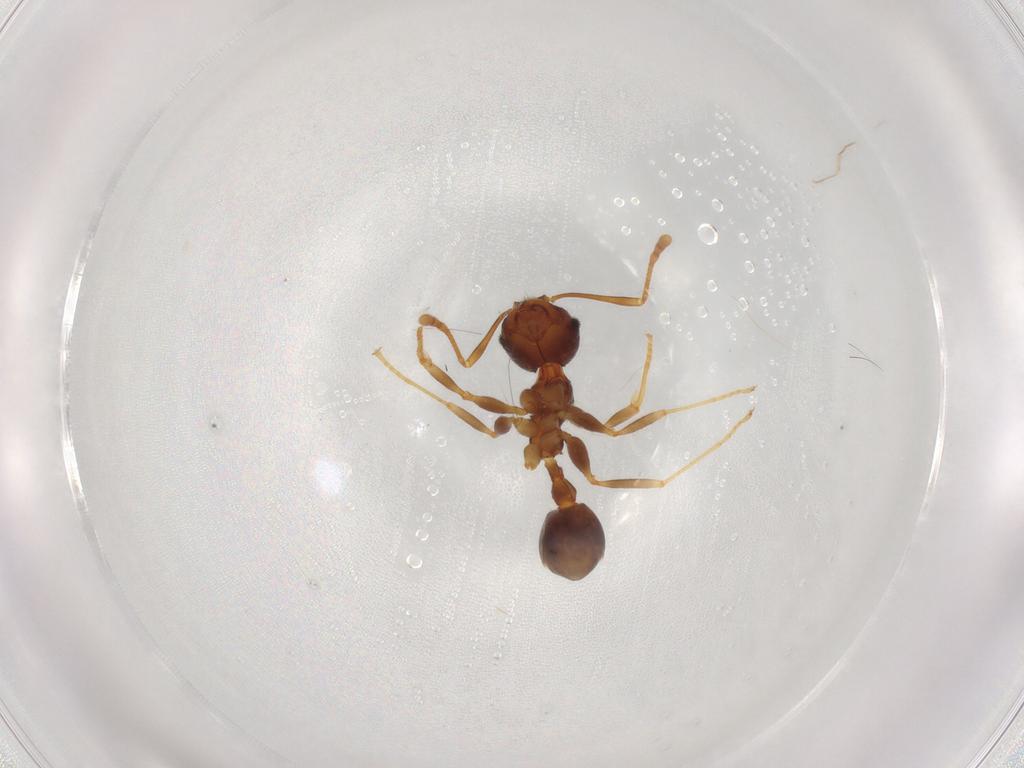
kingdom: Animalia
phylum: Arthropoda
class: Insecta
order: Hymenoptera
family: Formicidae
